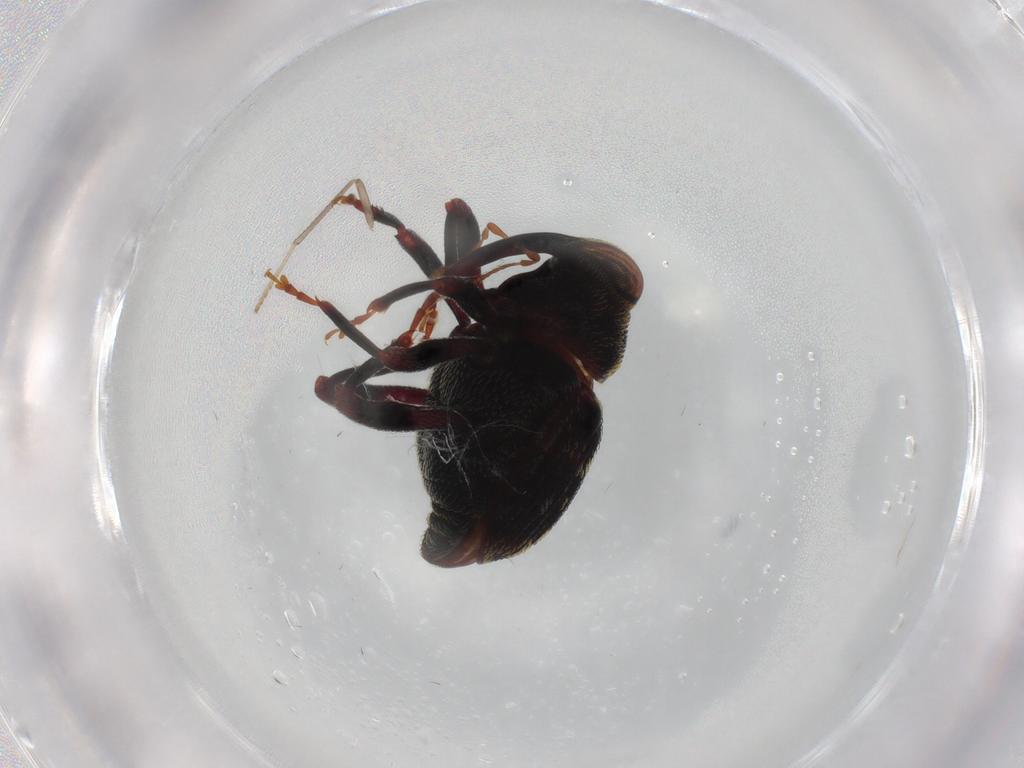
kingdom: Animalia
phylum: Arthropoda
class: Insecta
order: Coleoptera
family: Curculionidae
